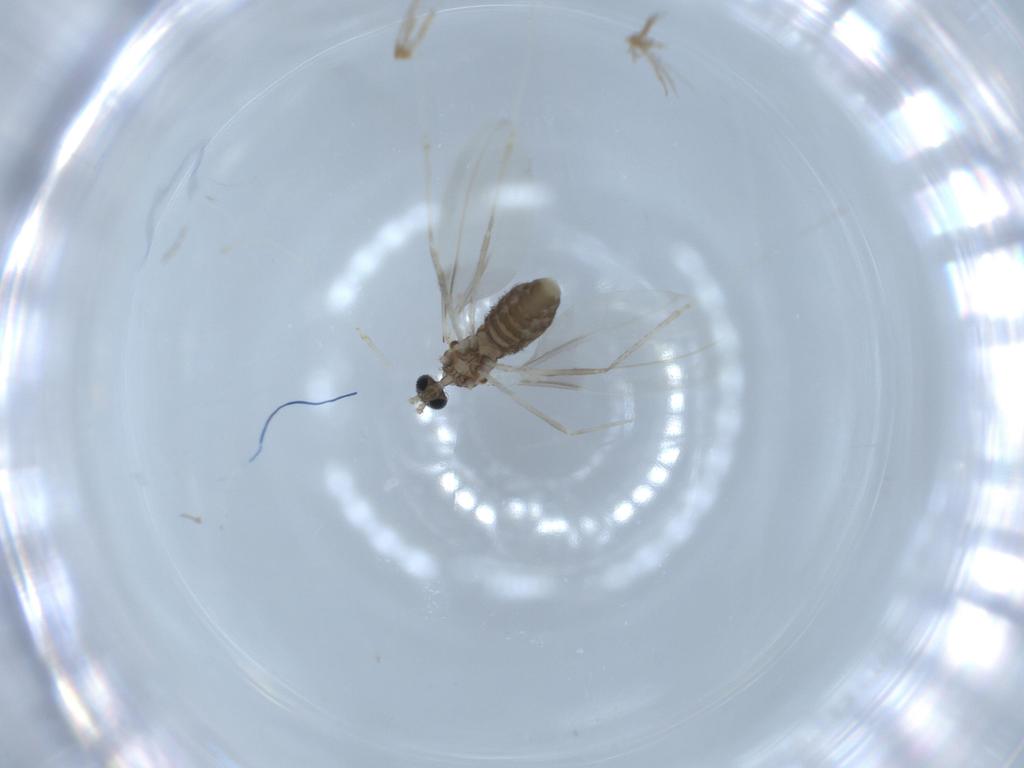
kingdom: Animalia
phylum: Arthropoda
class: Insecta
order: Diptera
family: Cecidomyiidae
